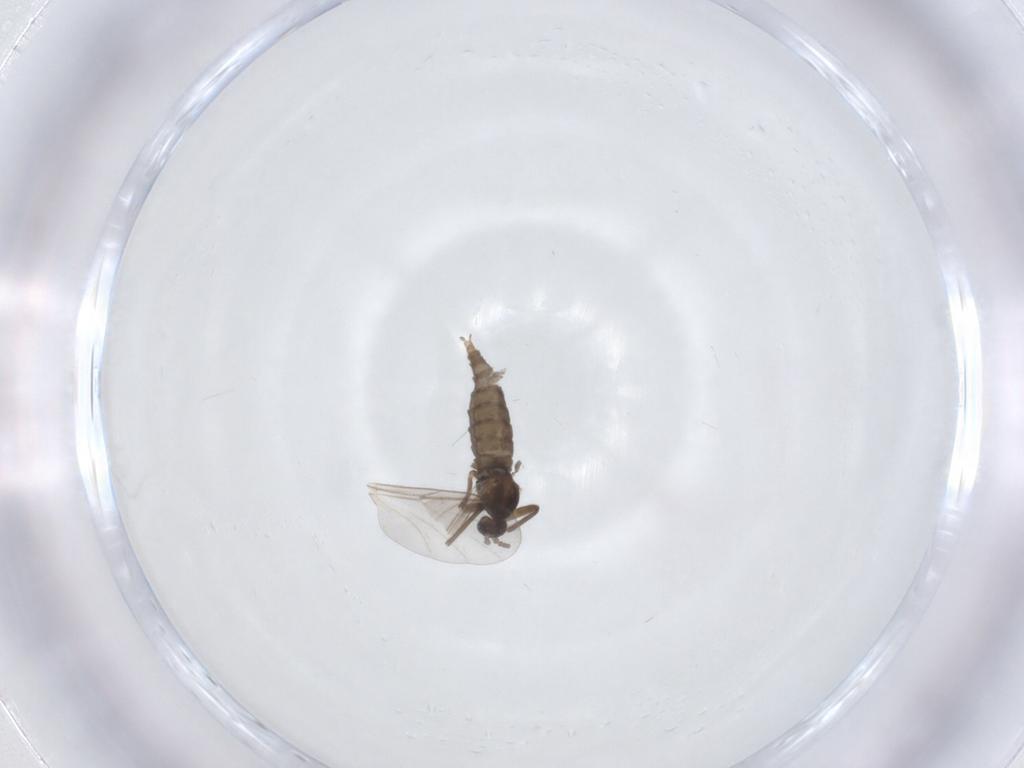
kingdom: Animalia
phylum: Arthropoda
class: Insecta
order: Diptera
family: Cecidomyiidae
